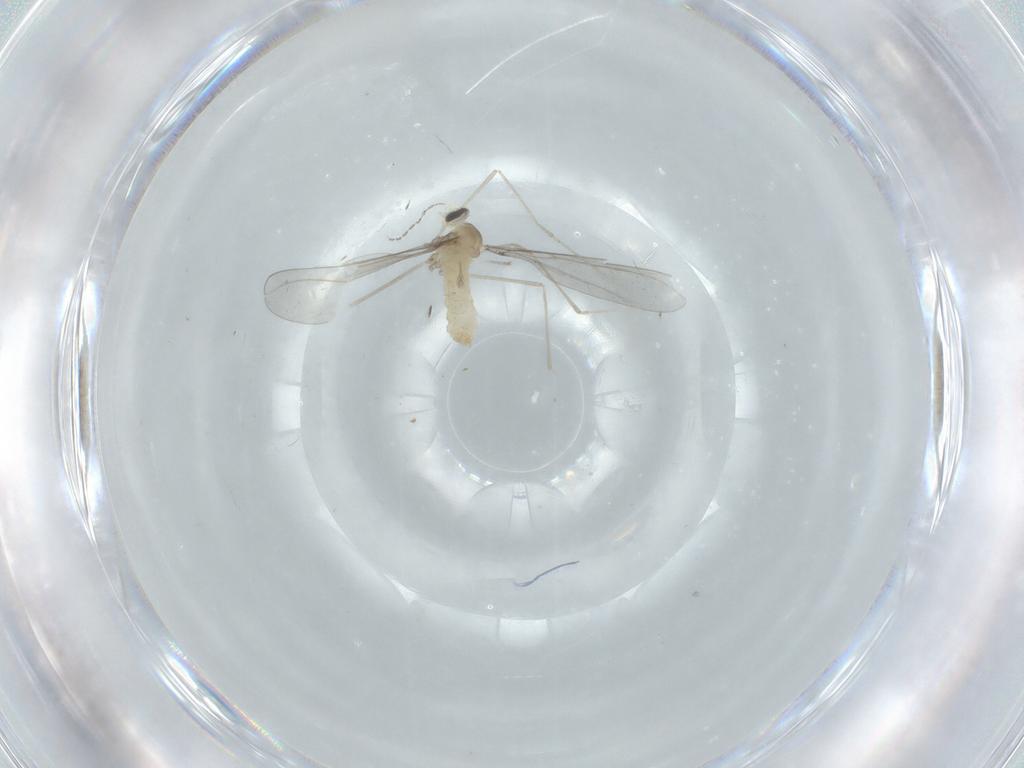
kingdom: Animalia
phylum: Arthropoda
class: Insecta
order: Diptera
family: Cecidomyiidae
